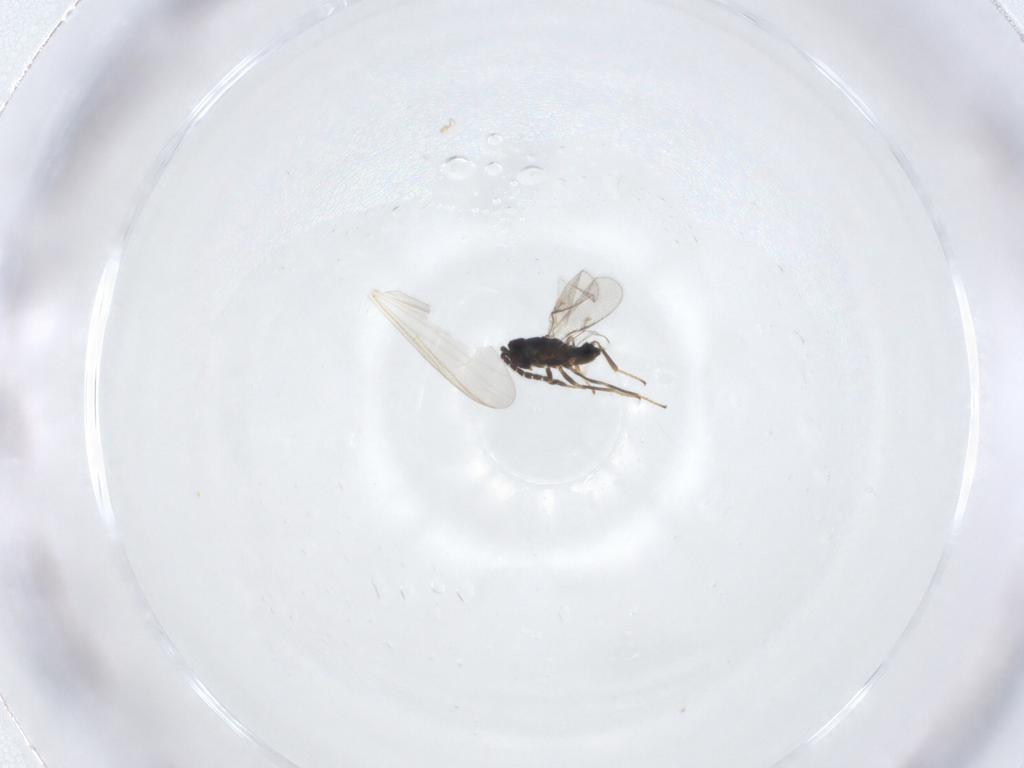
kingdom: Animalia
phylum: Arthropoda
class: Insecta
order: Hymenoptera
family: Encyrtidae
